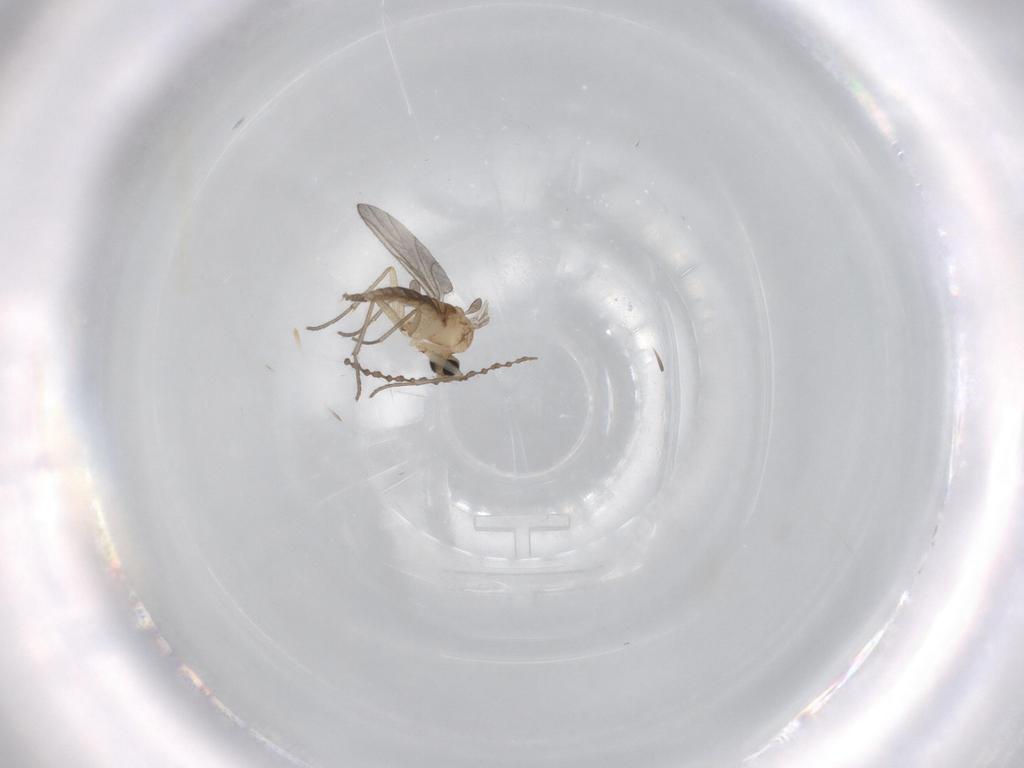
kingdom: Animalia
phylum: Arthropoda
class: Insecta
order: Diptera
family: Sciaridae
